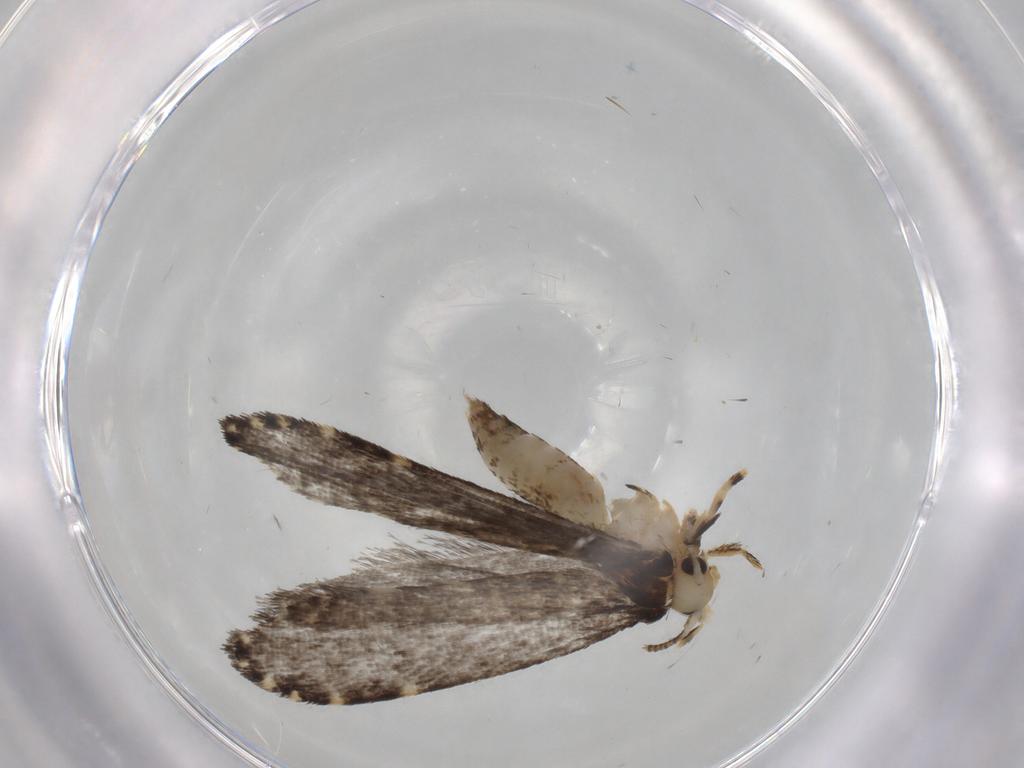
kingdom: Animalia
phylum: Arthropoda
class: Insecta
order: Lepidoptera
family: Tineidae
